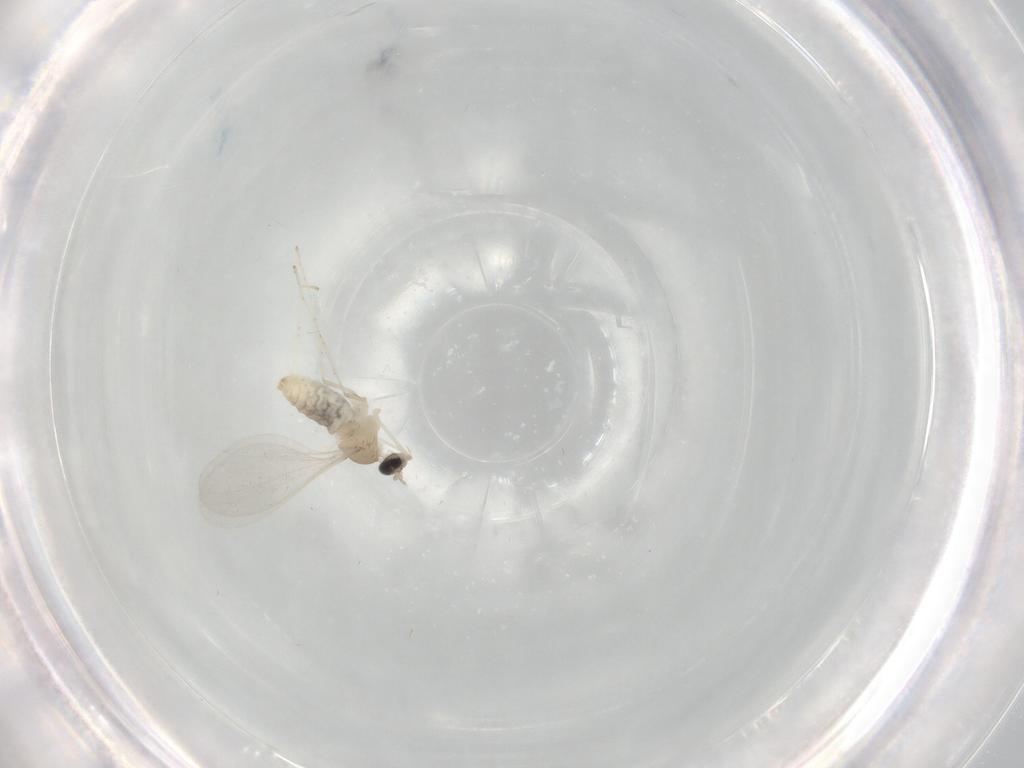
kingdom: Animalia
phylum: Arthropoda
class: Insecta
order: Diptera
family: Cecidomyiidae
